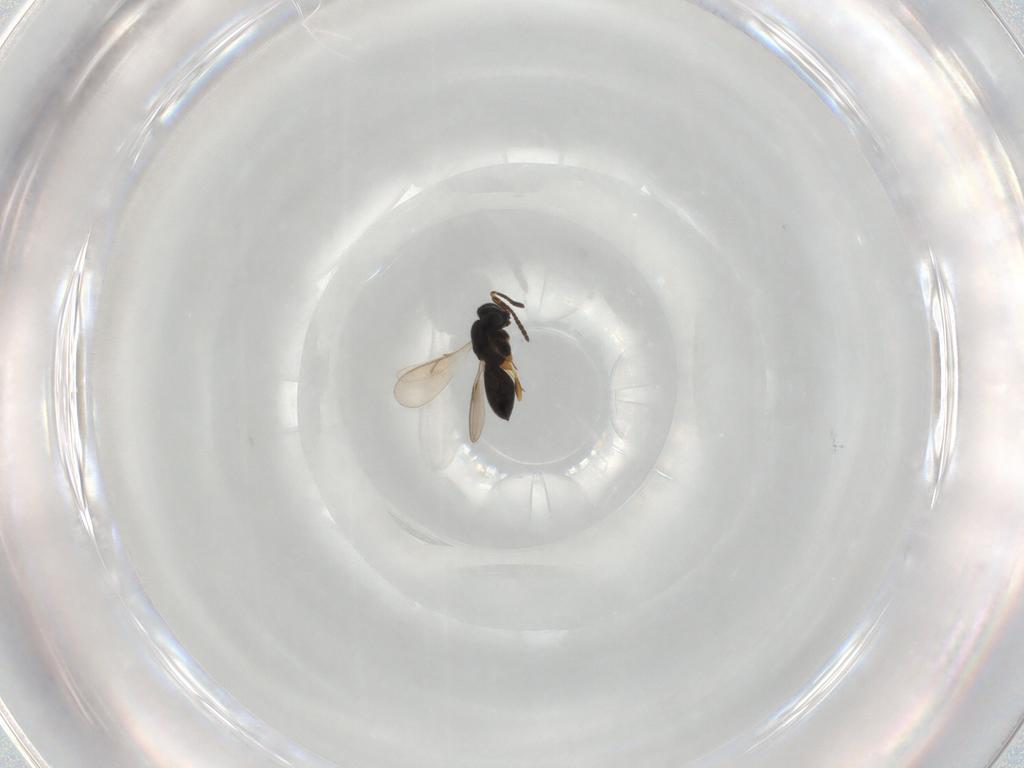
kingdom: Animalia
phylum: Arthropoda
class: Insecta
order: Hymenoptera
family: Scelionidae
